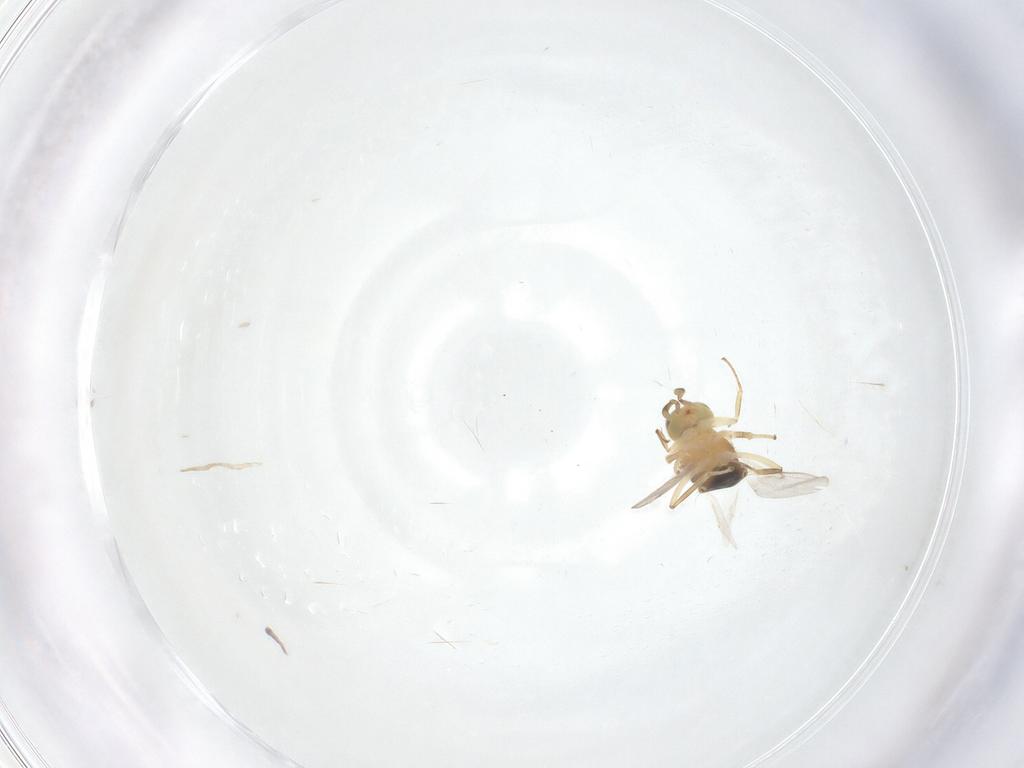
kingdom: Animalia
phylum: Arthropoda
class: Insecta
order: Hymenoptera
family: Encyrtidae
